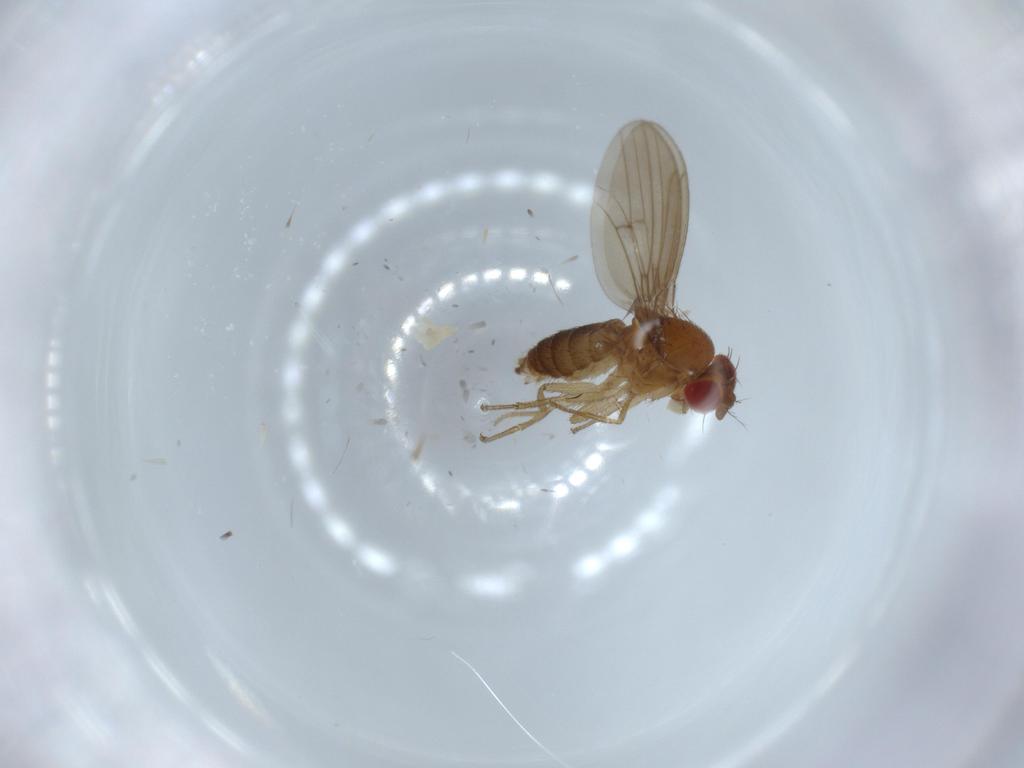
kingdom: Animalia
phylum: Arthropoda
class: Insecta
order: Diptera
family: Drosophilidae
